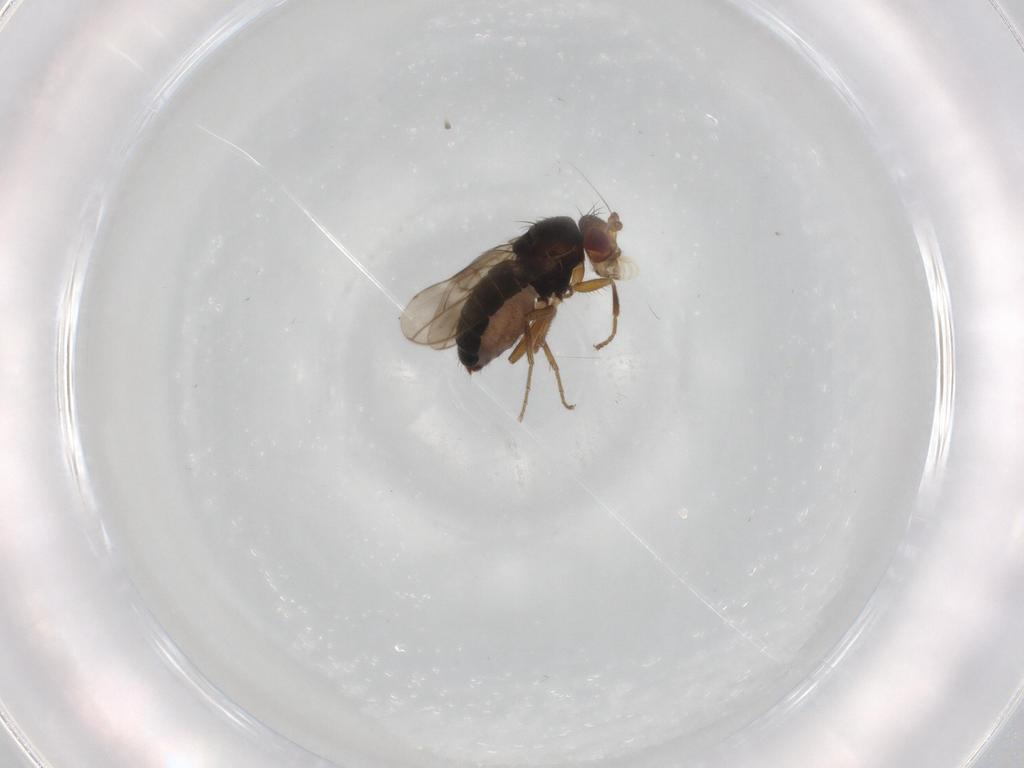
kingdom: Animalia
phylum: Arthropoda
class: Insecta
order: Diptera
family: Sphaeroceridae
